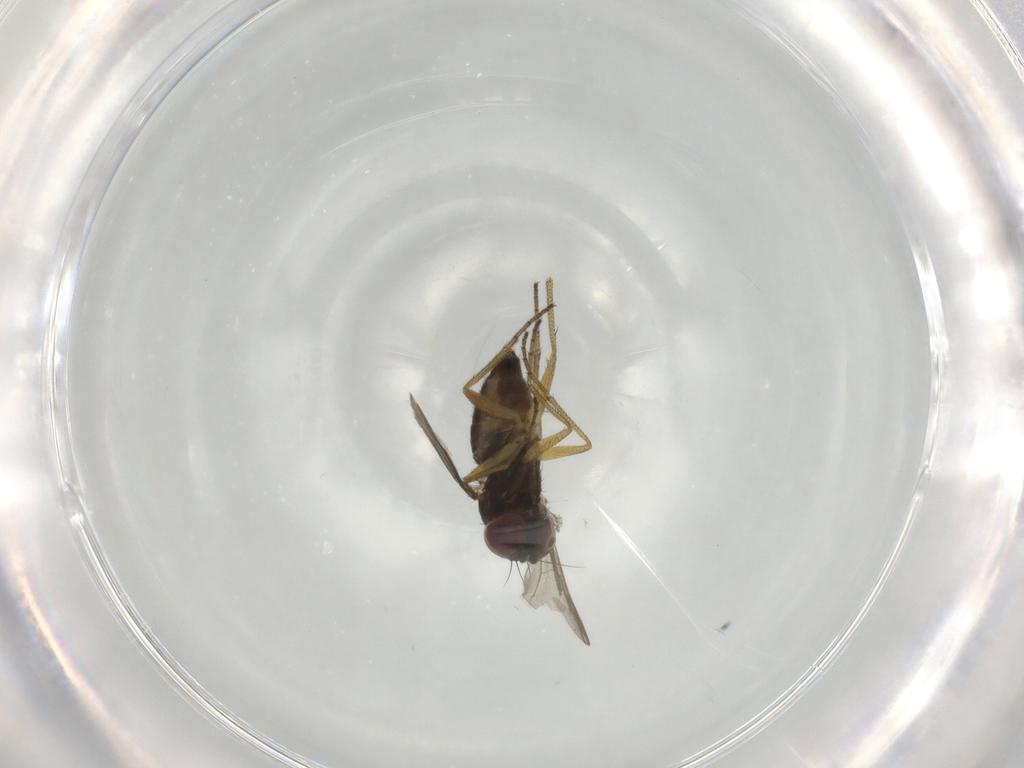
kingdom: Animalia
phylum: Arthropoda
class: Insecta
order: Diptera
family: Dolichopodidae
